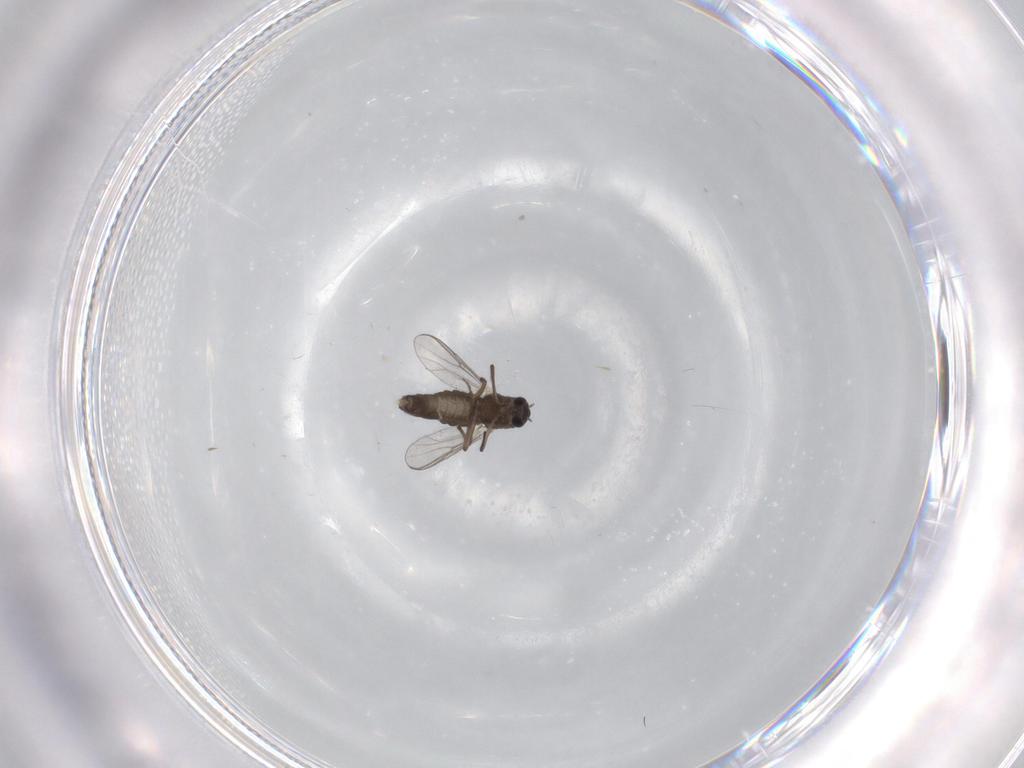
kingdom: Animalia
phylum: Arthropoda
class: Insecta
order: Diptera
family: Chironomidae
